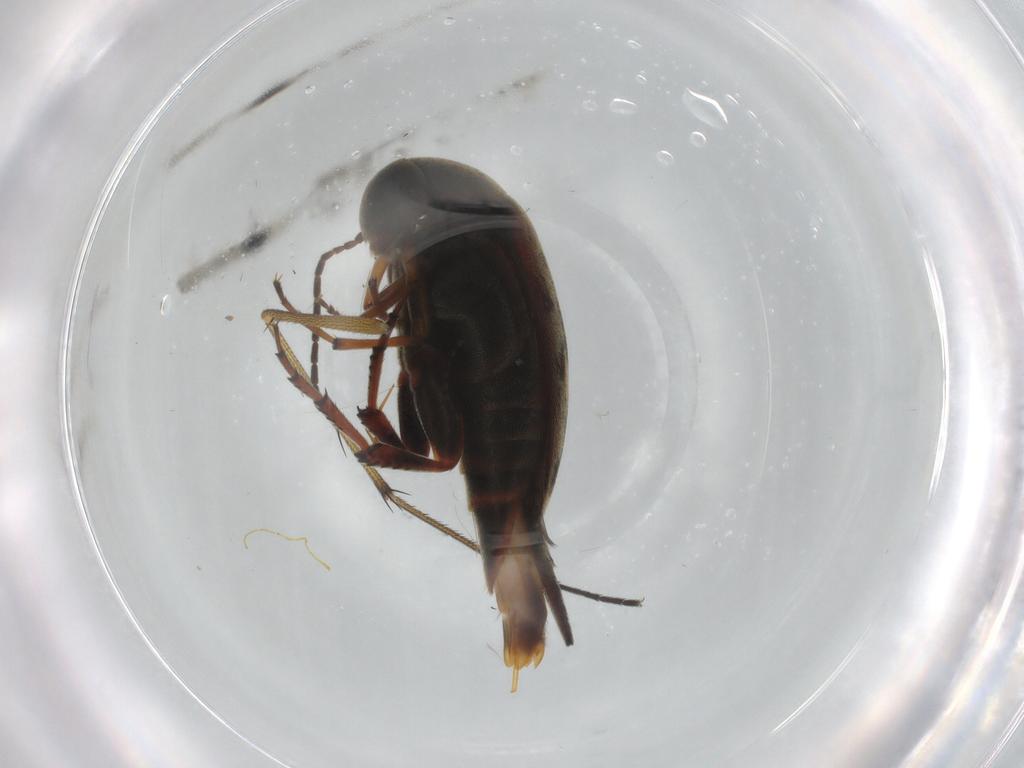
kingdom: Animalia
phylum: Arthropoda
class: Insecta
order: Coleoptera
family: Mordellidae
